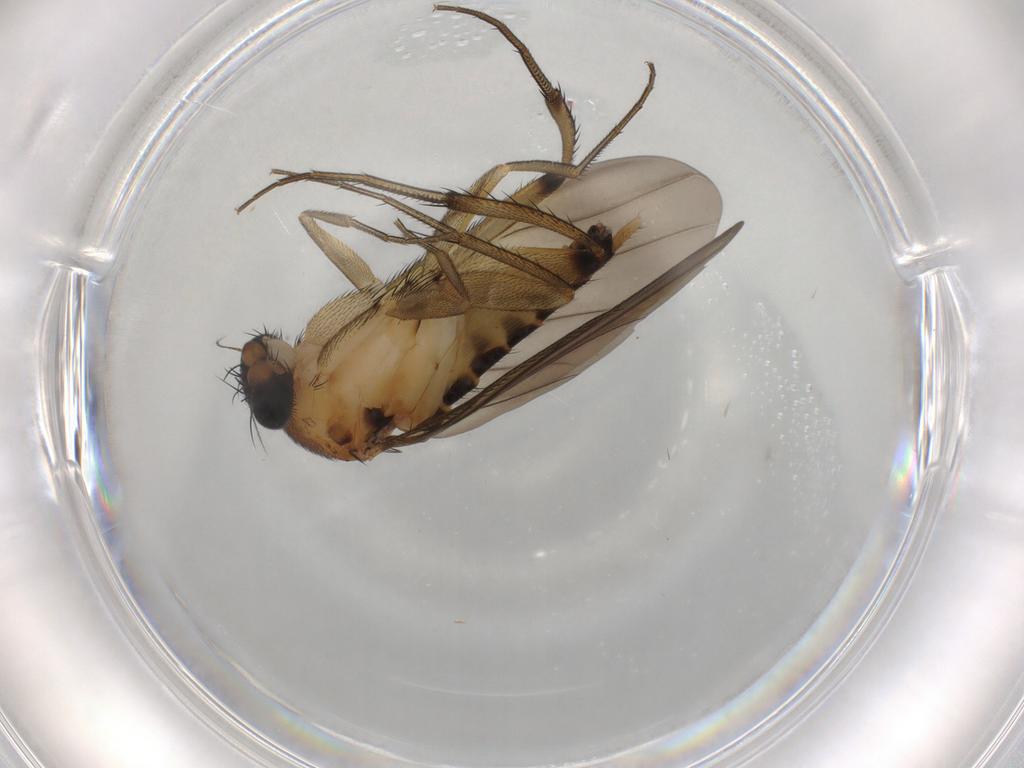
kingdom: Animalia
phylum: Arthropoda
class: Insecta
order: Diptera
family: Phoridae
